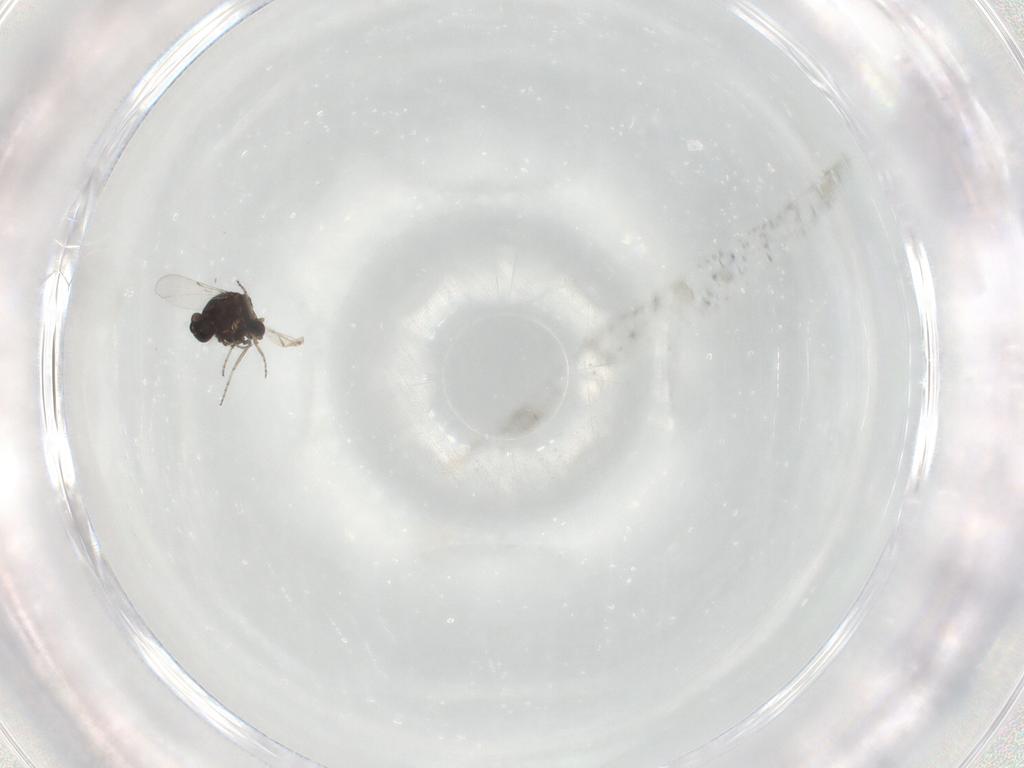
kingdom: Animalia
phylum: Arthropoda
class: Insecta
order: Diptera
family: Ceratopogonidae
